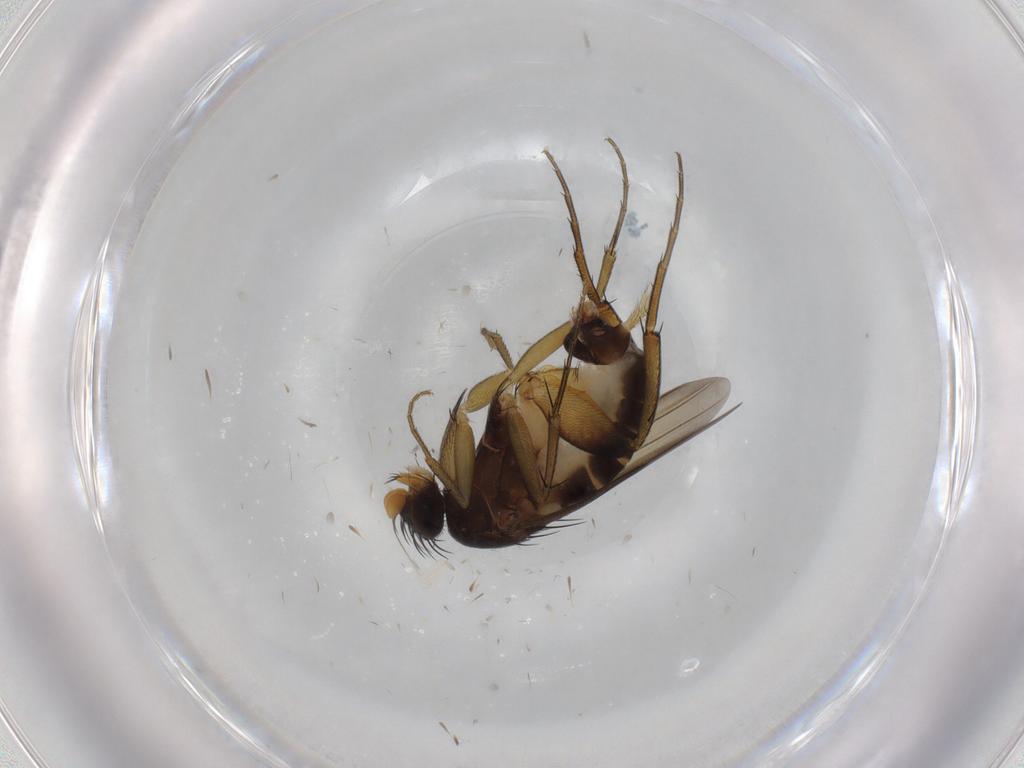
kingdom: Animalia
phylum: Arthropoda
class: Insecta
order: Diptera
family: Phoridae
